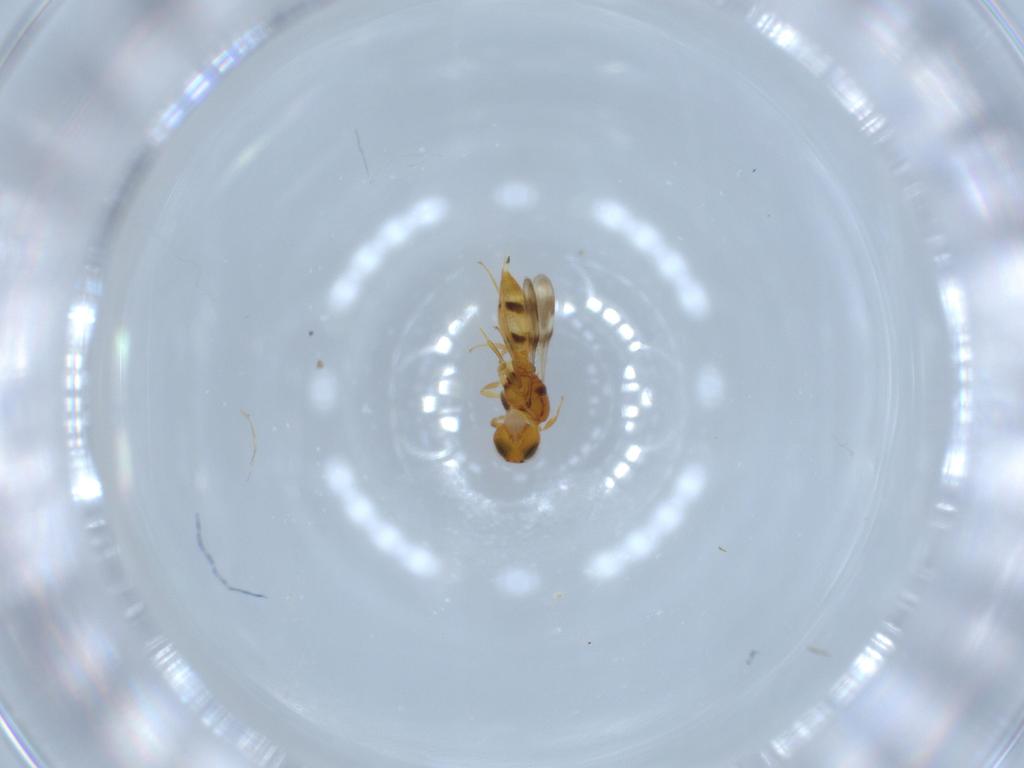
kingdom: Animalia
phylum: Arthropoda
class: Insecta
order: Hymenoptera
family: Scelionidae
